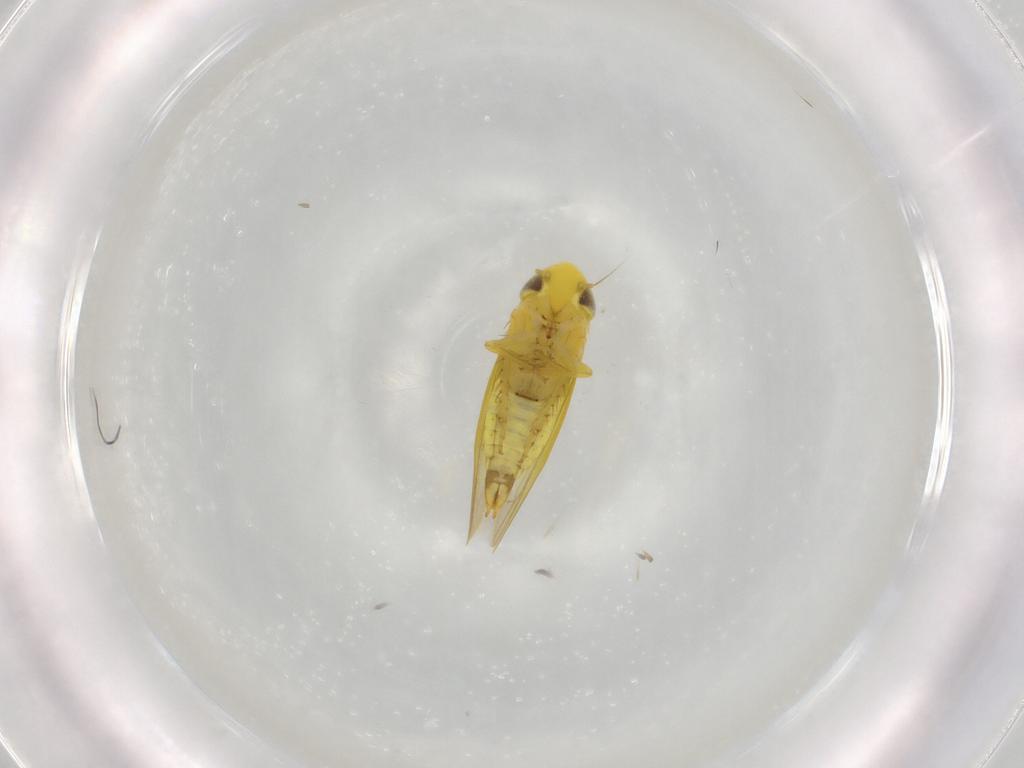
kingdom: Animalia
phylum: Arthropoda
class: Insecta
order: Hemiptera
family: Cicadellidae
